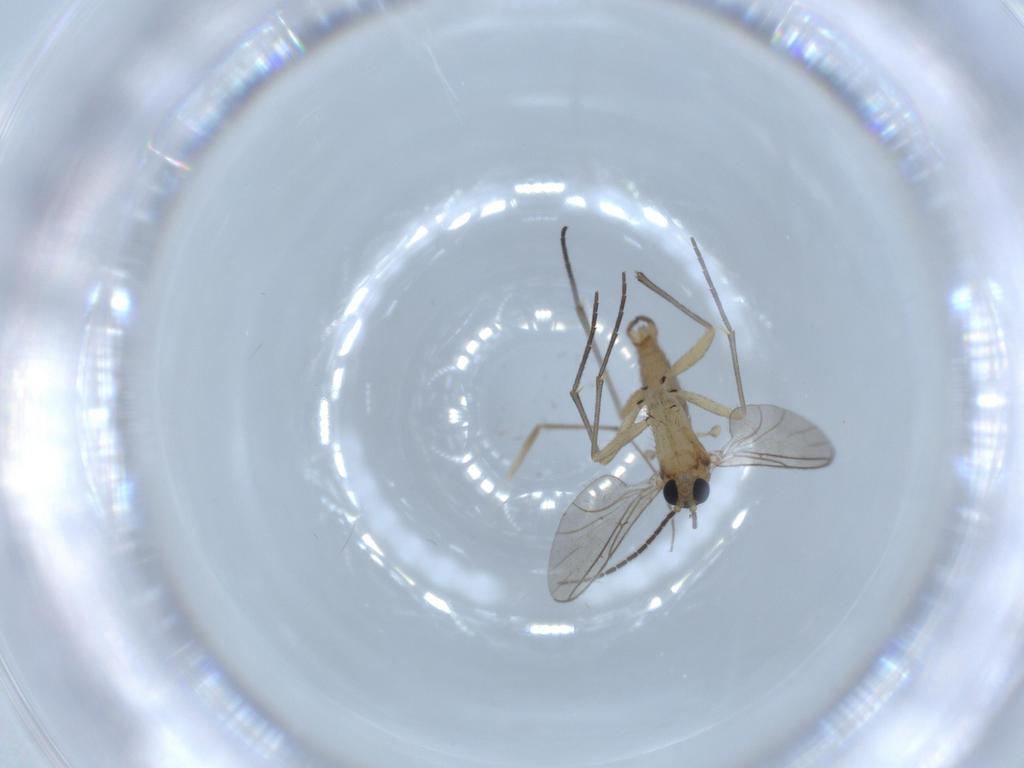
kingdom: Animalia
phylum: Arthropoda
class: Insecta
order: Diptera
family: Sciaridae
